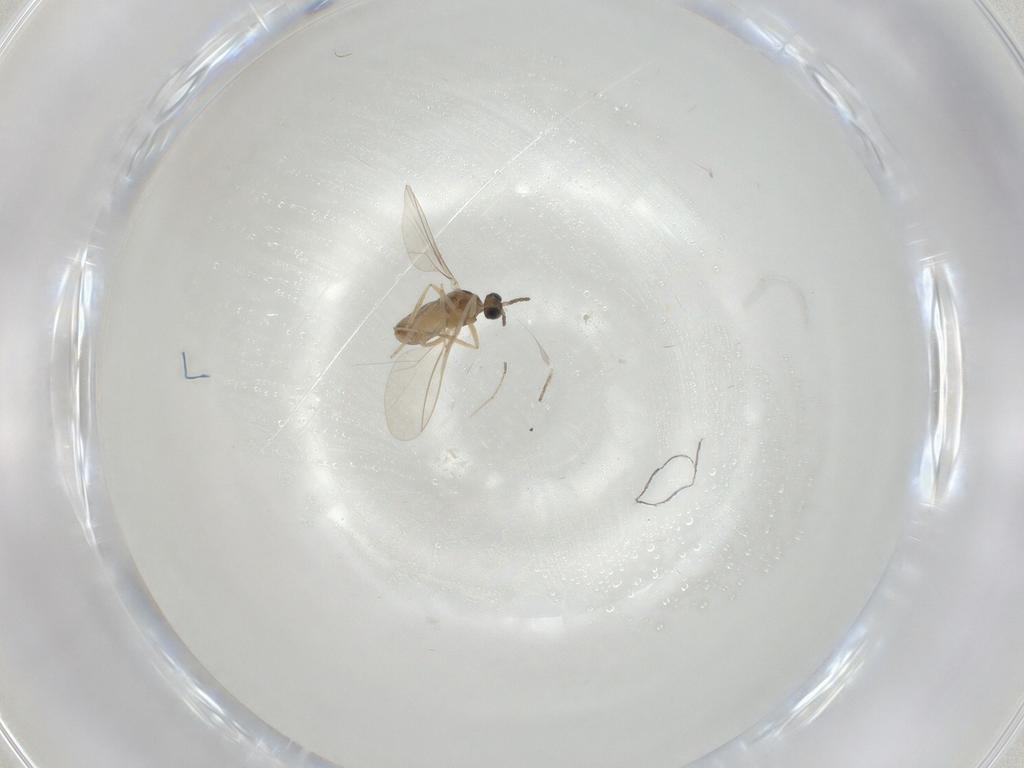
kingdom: Animalia
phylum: Arthropoda
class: Insecta
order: Diptera
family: Cecidomyiidae
